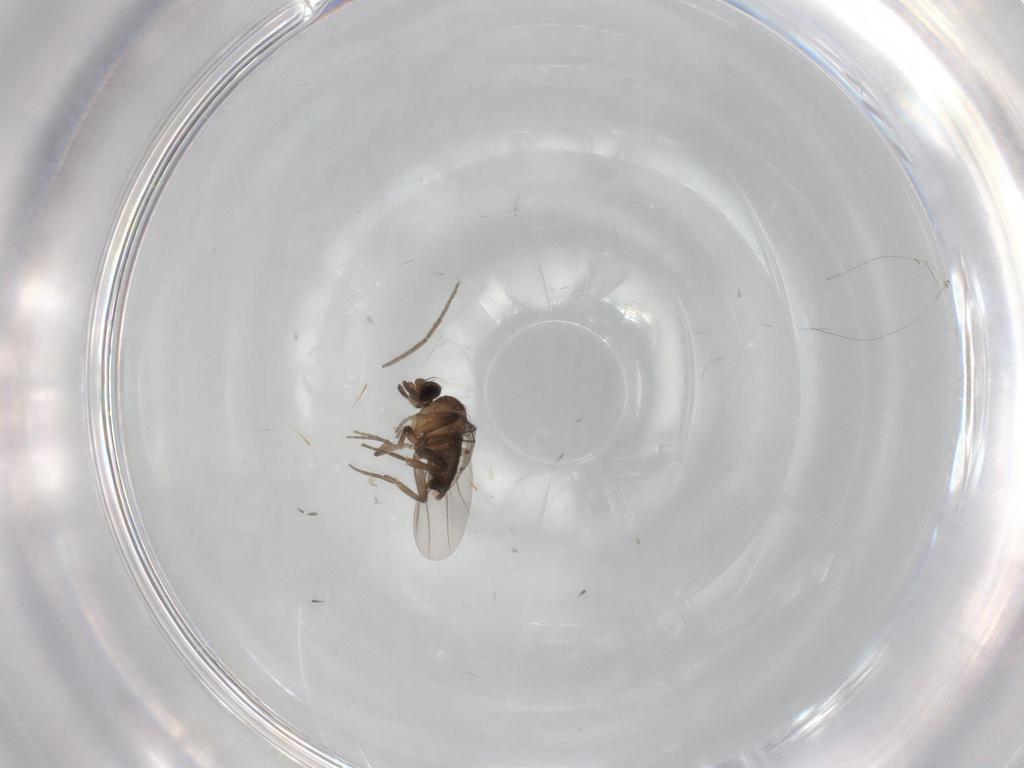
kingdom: Animalia
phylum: Arthropoda
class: Insecta
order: Diptera
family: Phoridae
